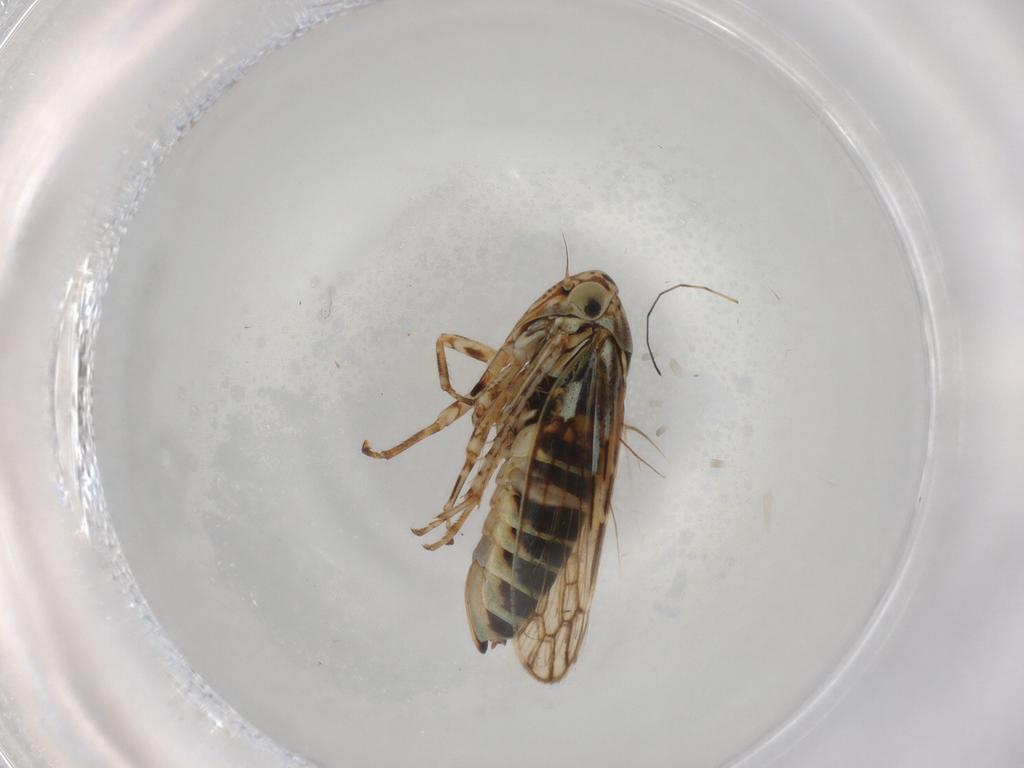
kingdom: Animalia
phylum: Arthropoda
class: Insecta
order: Hemiptera
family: Cicadellidae
